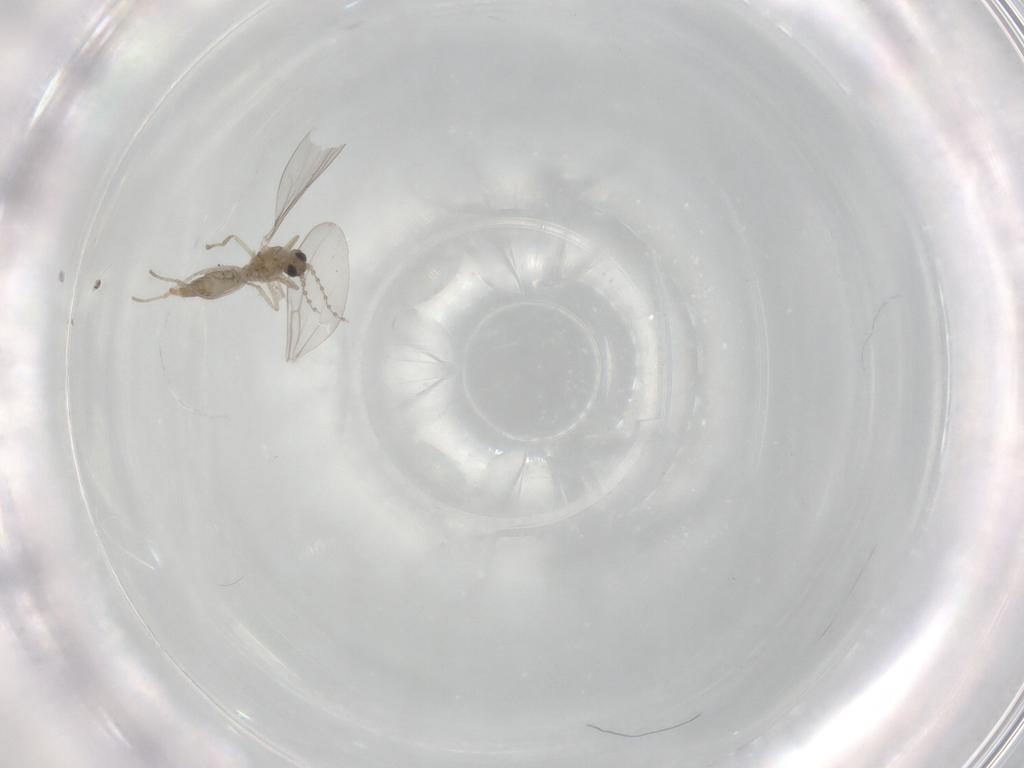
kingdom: Animalia
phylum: Arthropoda
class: Insecta
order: Diptera
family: Cecidomyiidae
